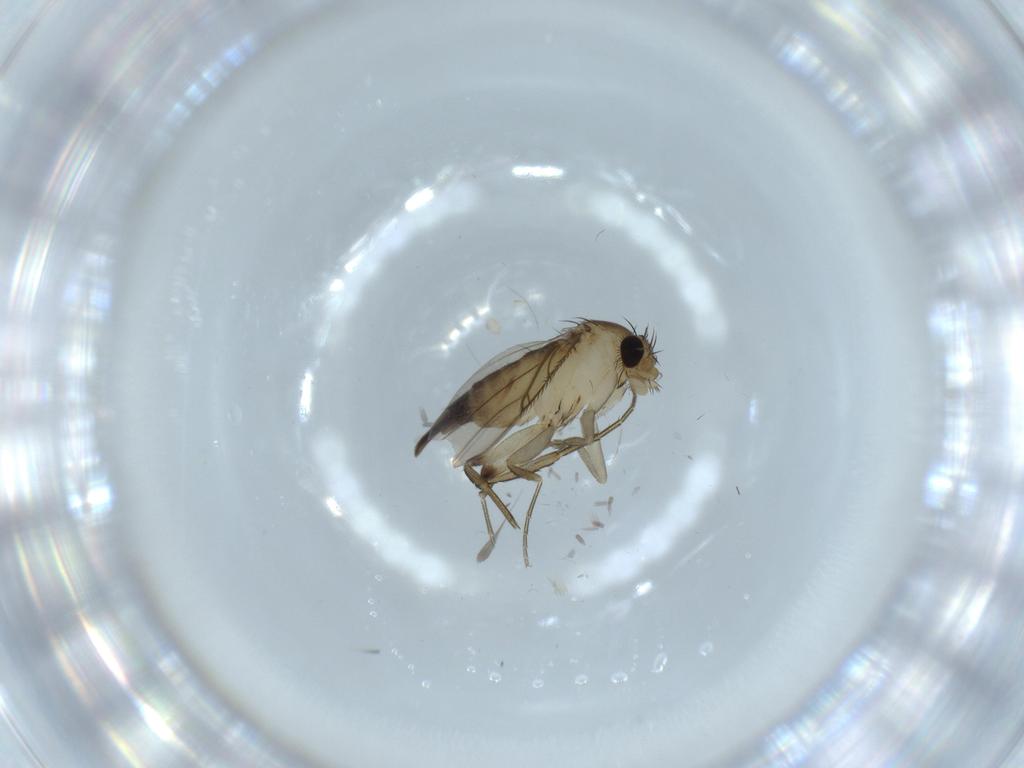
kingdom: Animalia
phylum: Arthropoda
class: Insecta
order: Diptera
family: Phoridae
